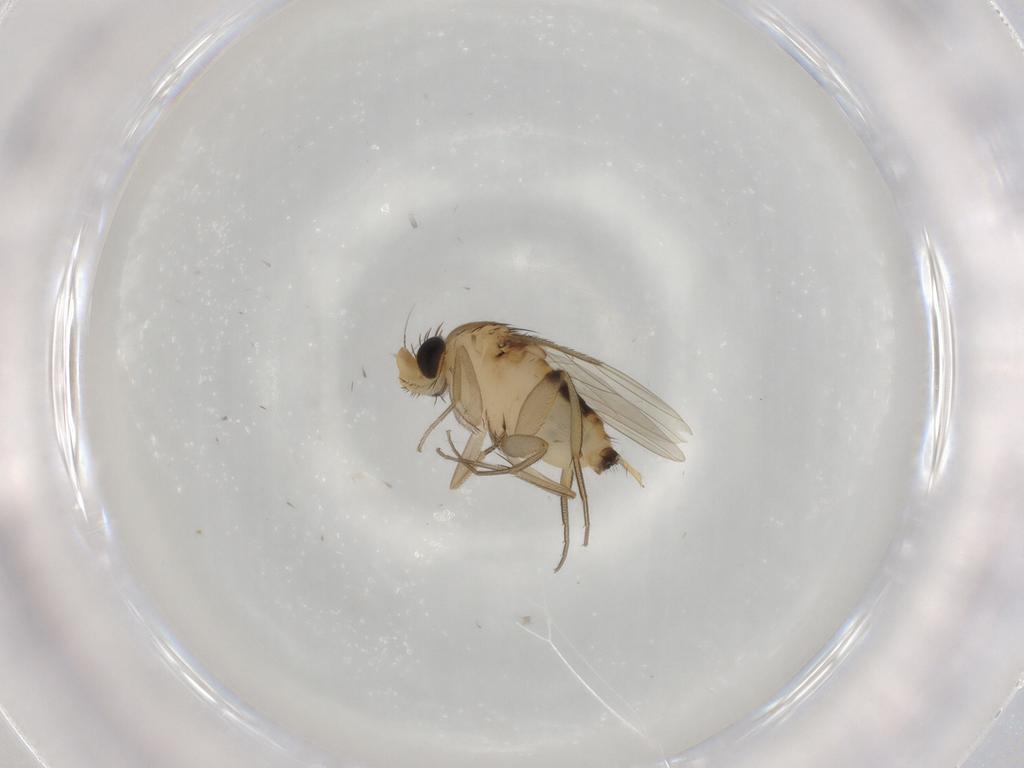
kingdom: Animalia
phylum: Arthropoda
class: Insecta
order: Diptera
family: Phoridae
